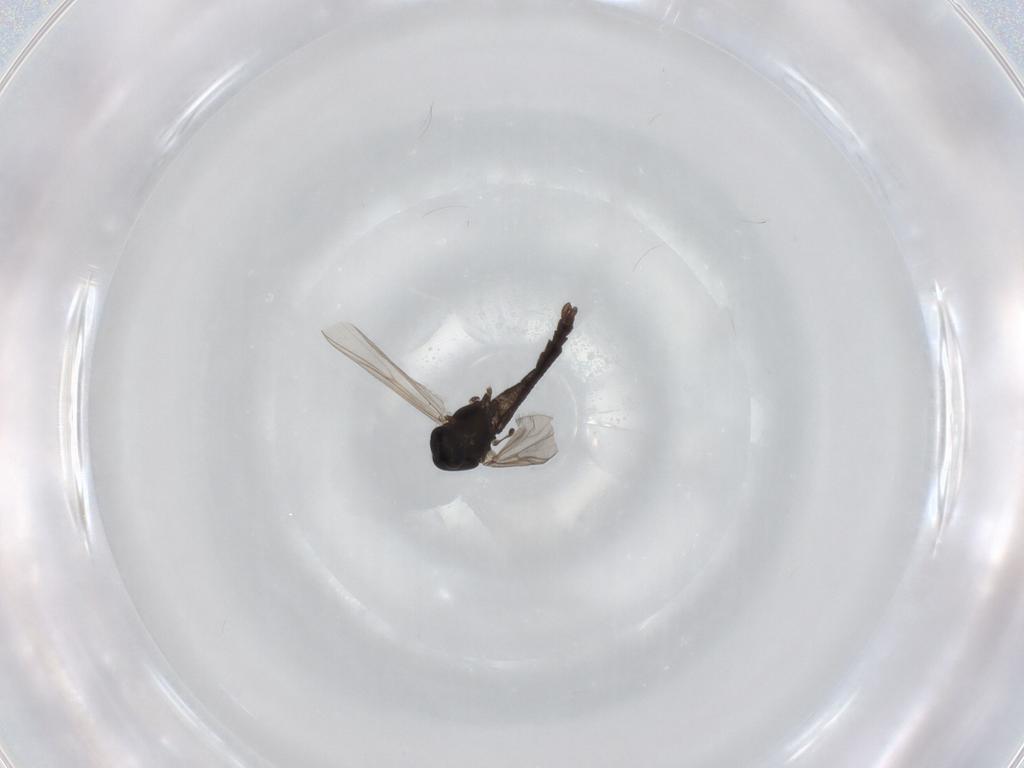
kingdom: Animalia
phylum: Arthropoda
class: Insecta
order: Diptera
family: Chironomidae
